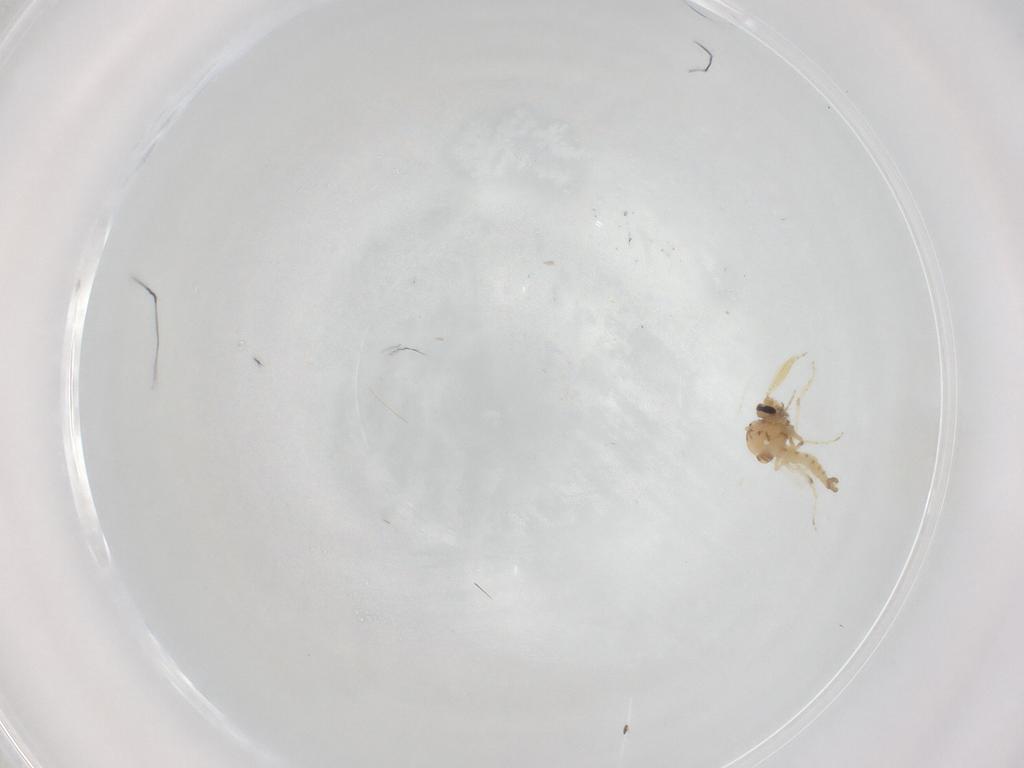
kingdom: Animalia
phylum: Arthropoda
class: Insecta
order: Diptera
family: Ceratopogonidae
